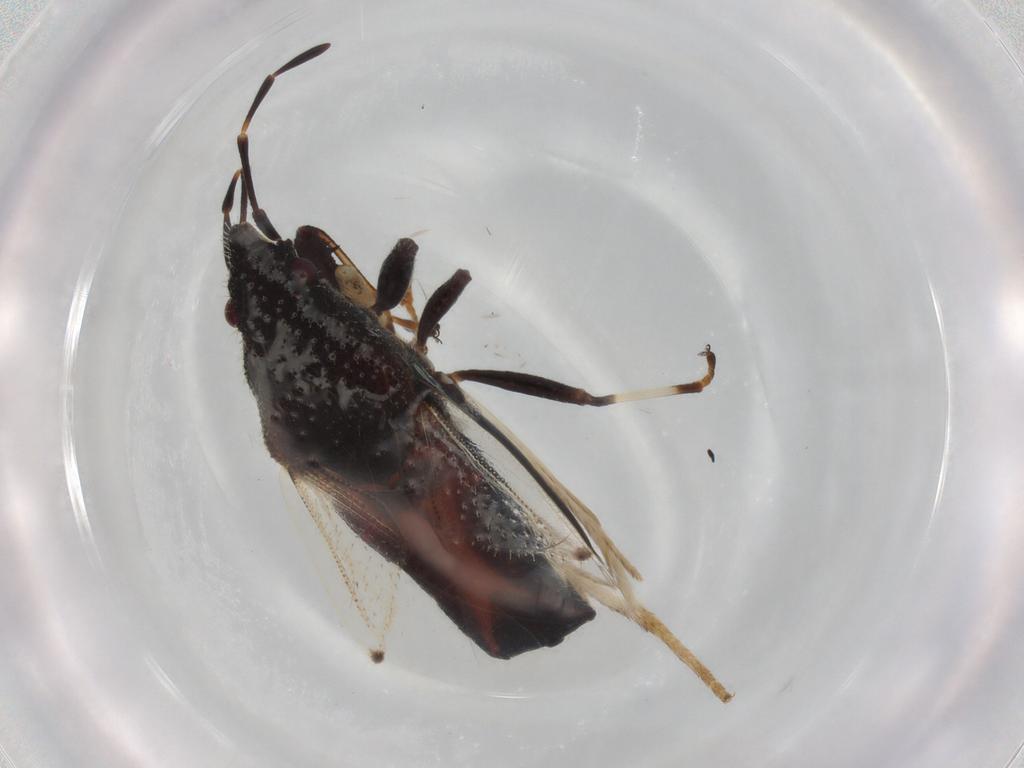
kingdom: Animalia
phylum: Arthropoda
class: Insecta
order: Hemiptera
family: Oxycarenidae
